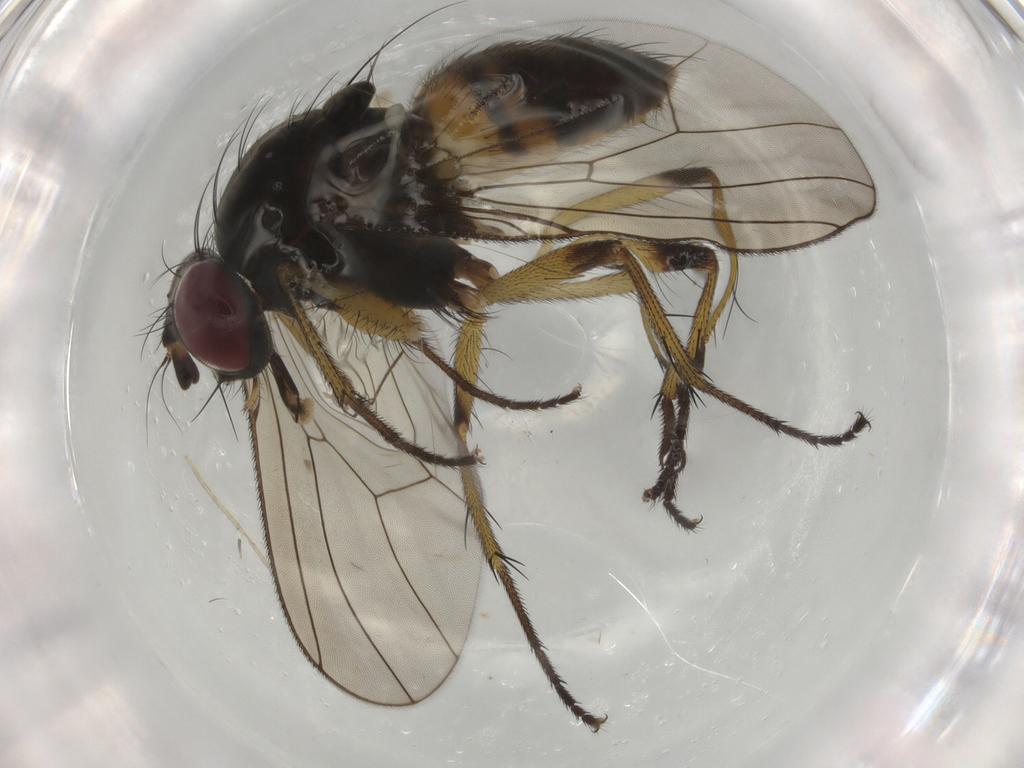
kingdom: Animalia
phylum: Arthropoda
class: Insecta
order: Diptera
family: Muscidae
